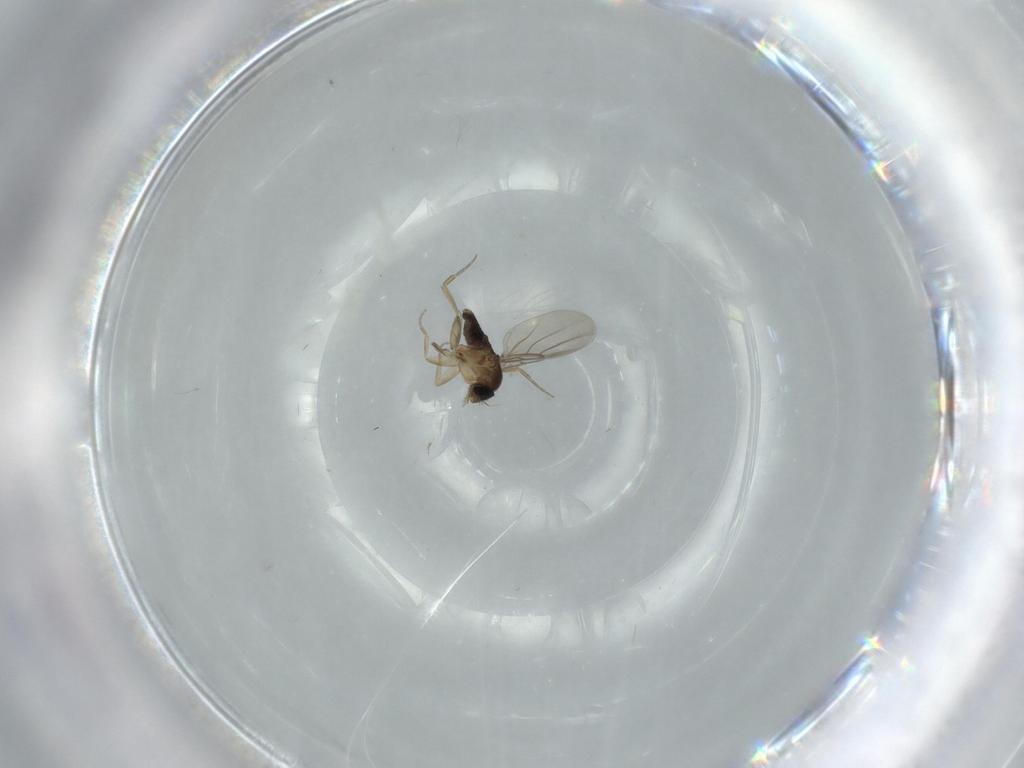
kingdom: Animalia
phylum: Arthropoda
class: Insecta
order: Diptera
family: Phoridae
